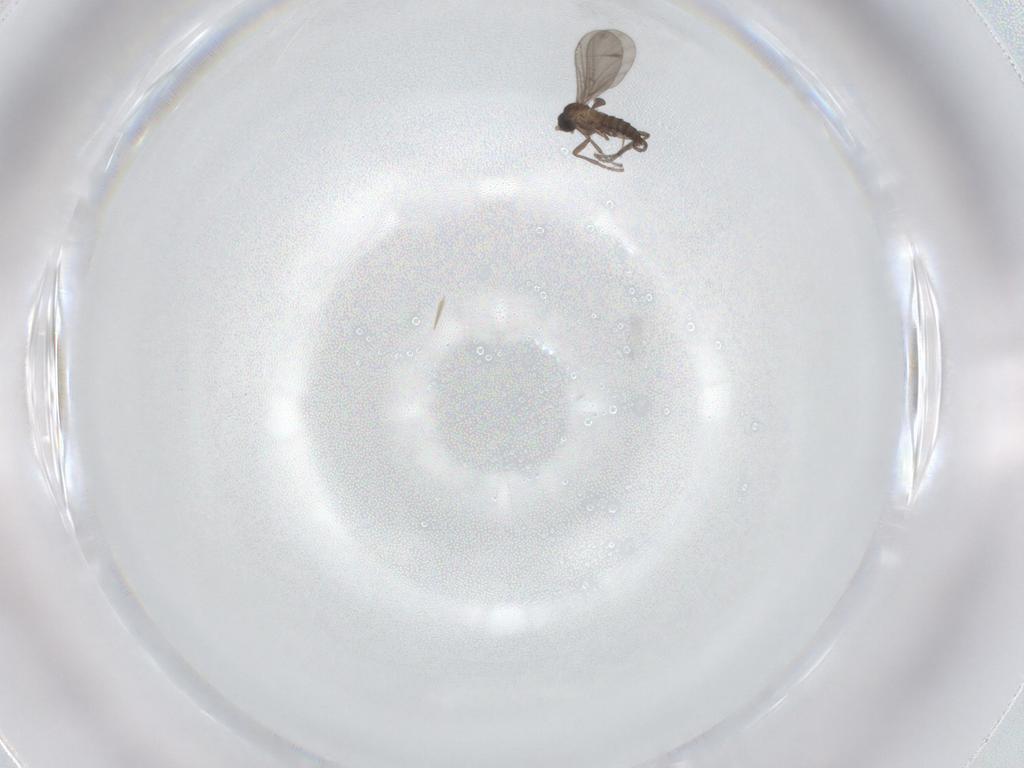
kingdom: Animalia
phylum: Arthropoda
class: Insecta
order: Diptera
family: Sciaridae
